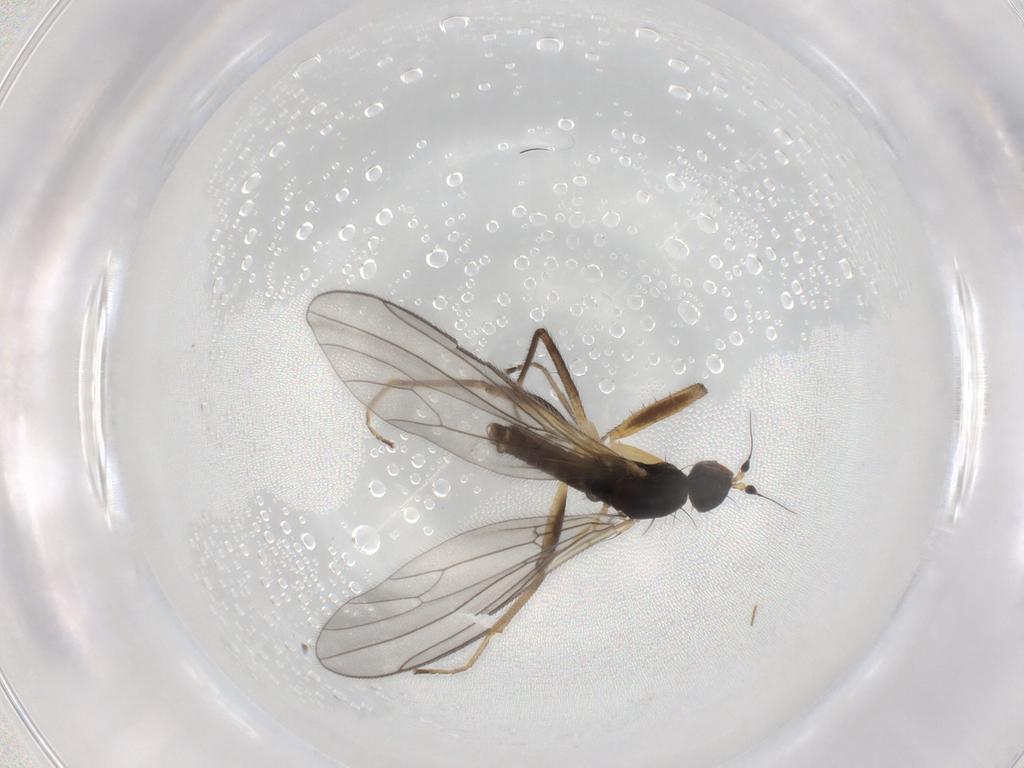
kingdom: Animalia
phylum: Arthropoda
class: Insecta
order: Diptera
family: Empididae
